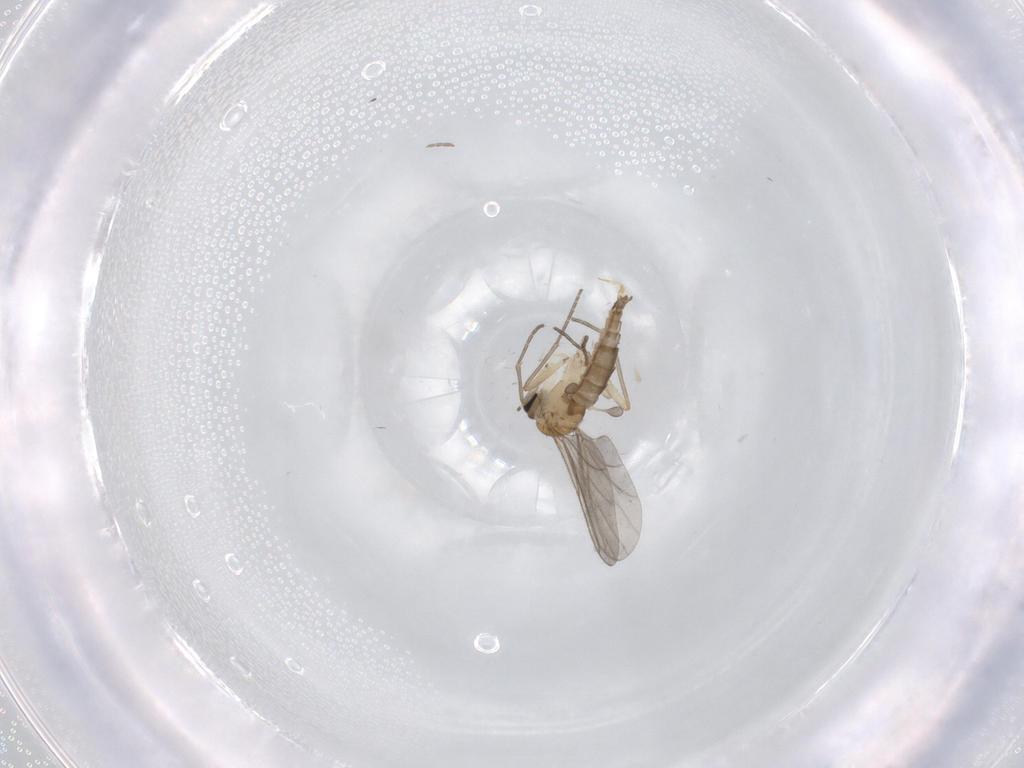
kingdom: Animalia
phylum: Arthropoda
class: Insecta
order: Diptera
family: Sciaridae
